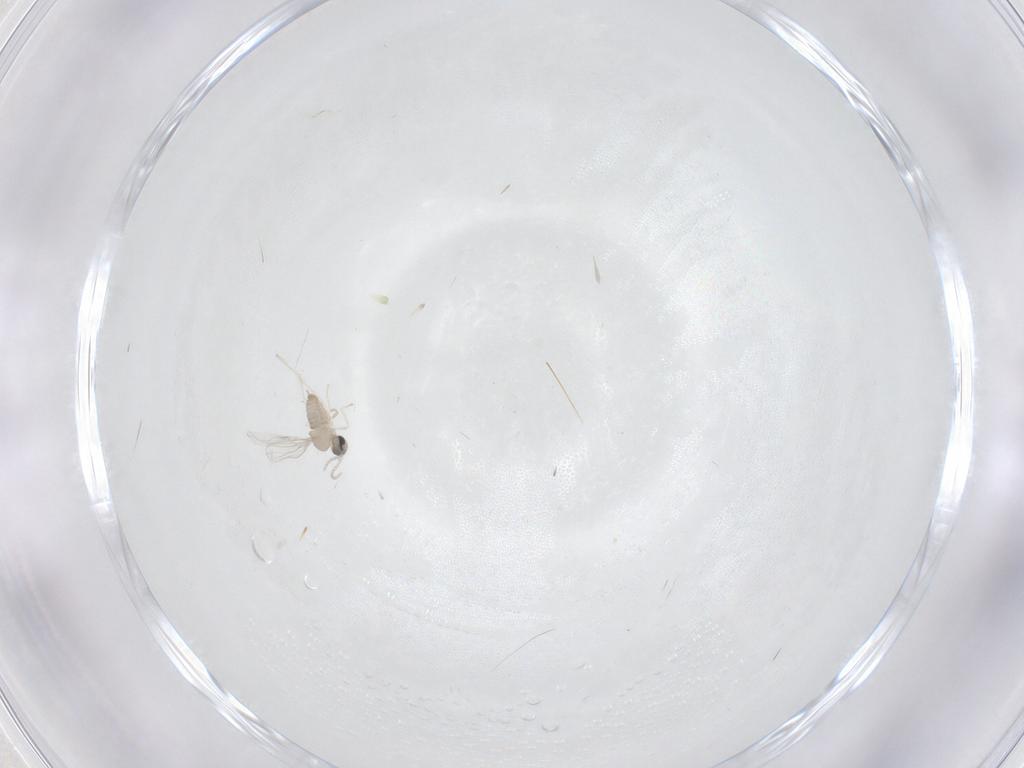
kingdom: Animalia
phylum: Arthropoda
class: Insecta
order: Diptera
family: Cecidomyiidae
